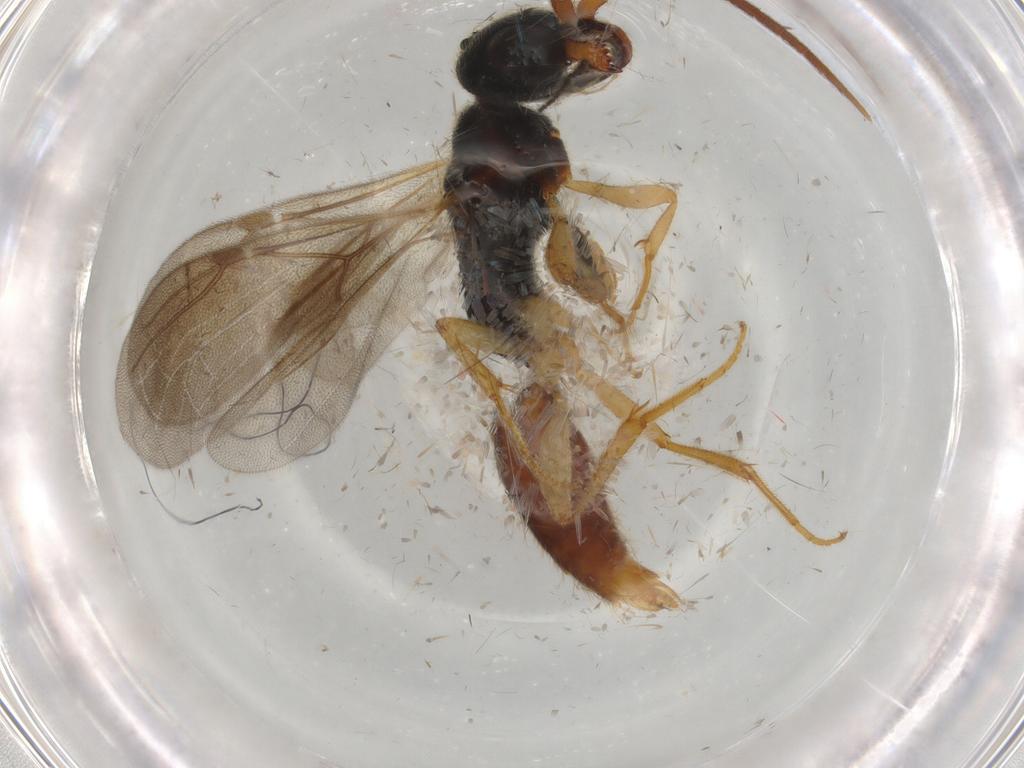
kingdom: Animalia
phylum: Arthropoda
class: Insecta
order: Hymenoptera
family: Bethylidae
